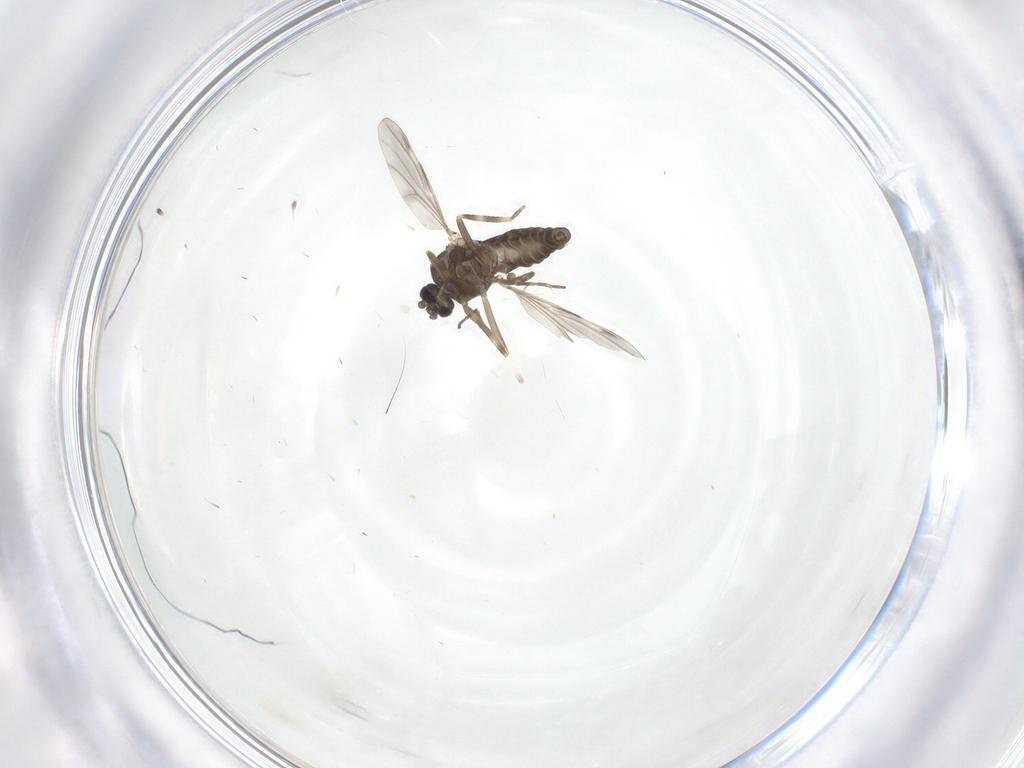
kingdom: Animalia
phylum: Arthropoda
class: Insecta
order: Diptera
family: Ceratopogonidae
